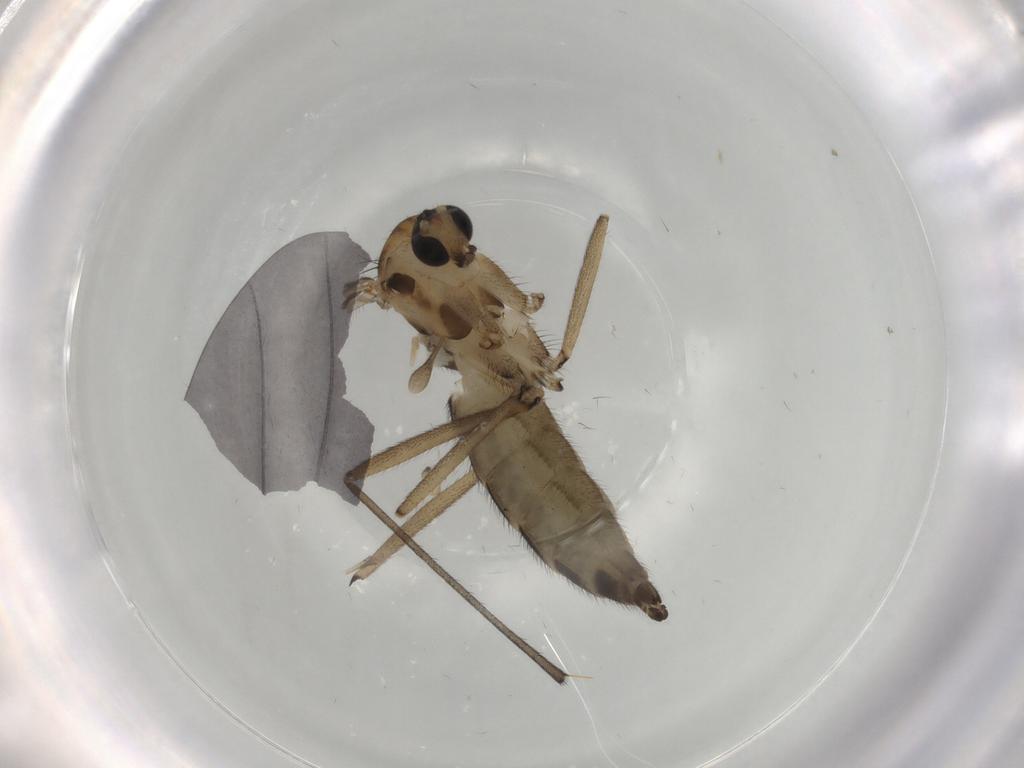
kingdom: Animalia
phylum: Arthropoda
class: Insecta
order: Diptera
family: Sciaridae
